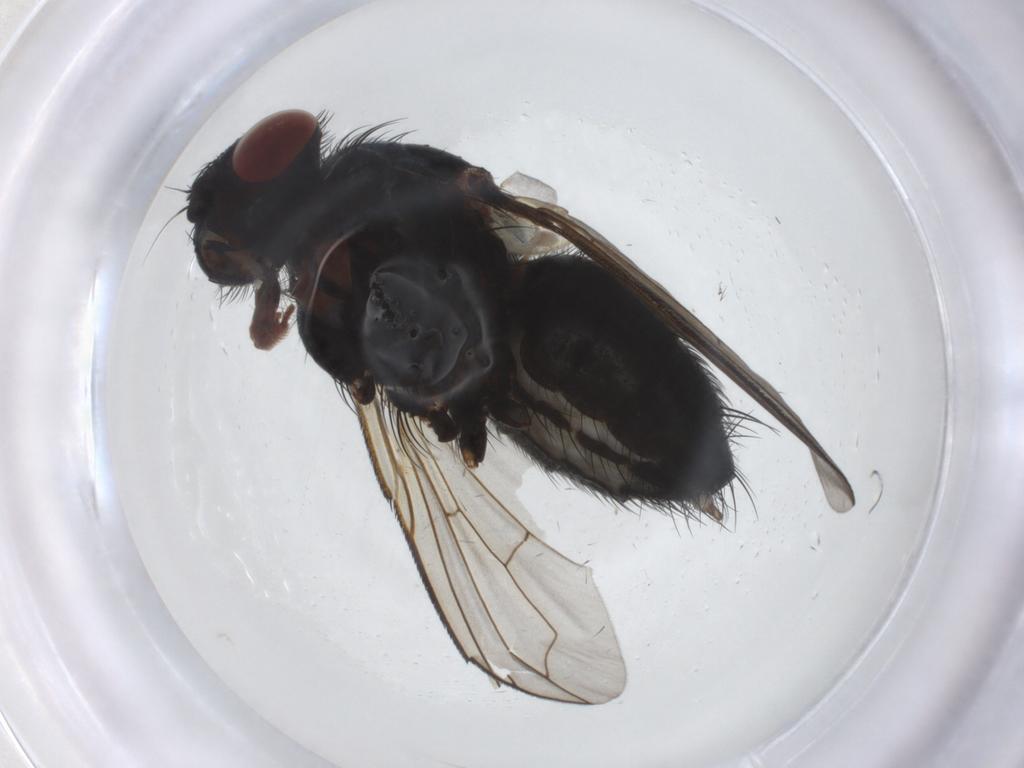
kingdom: Animalia
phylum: Arthropoda
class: Insecta
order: Diptera
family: Calliphoridae
